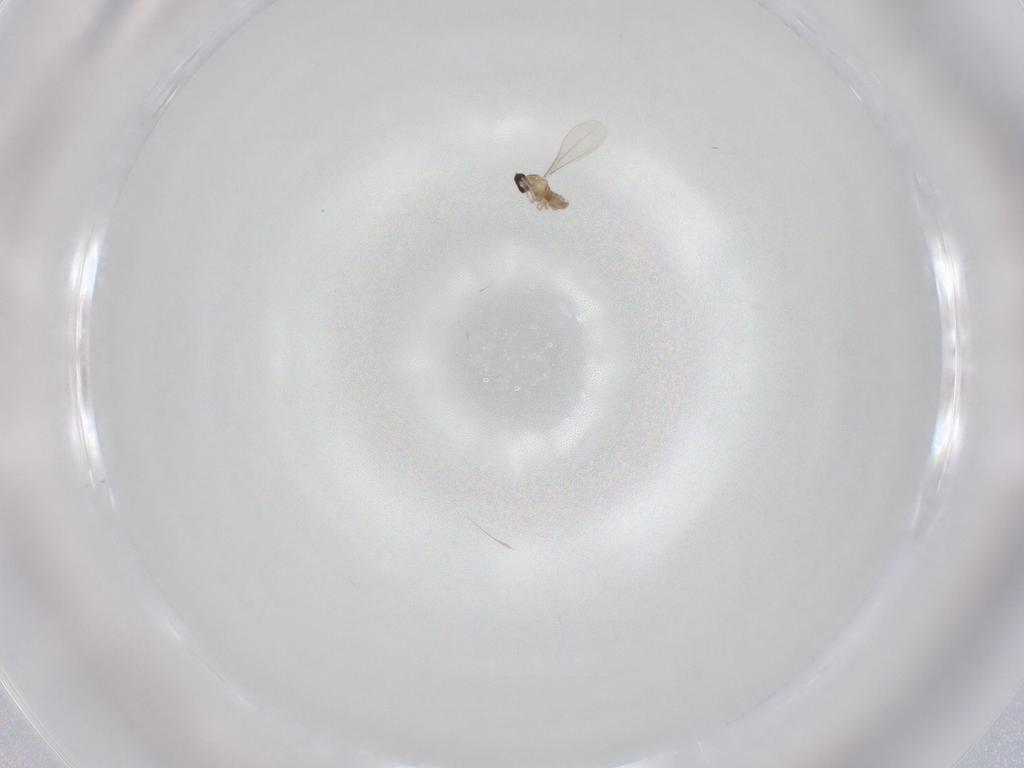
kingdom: Animalia
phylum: Arthropoda
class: Insecta
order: Diptera
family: Cecidomyiidae
